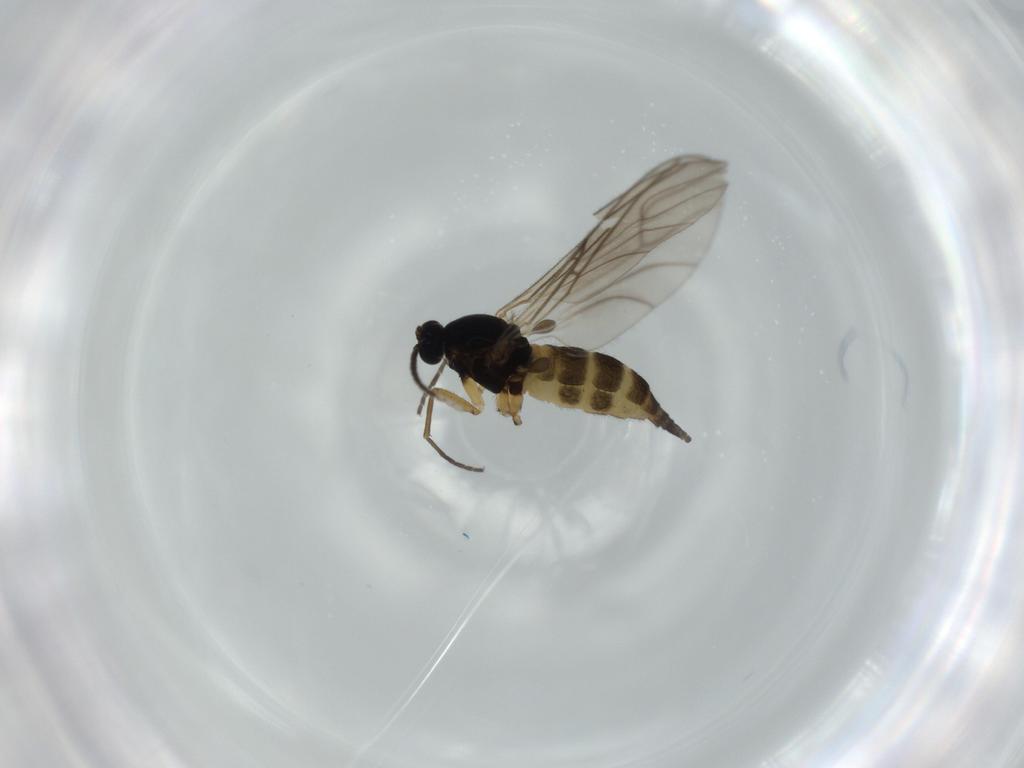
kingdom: Animalia
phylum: Arthropoda
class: Insecta
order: Diptera
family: Sciaridae
